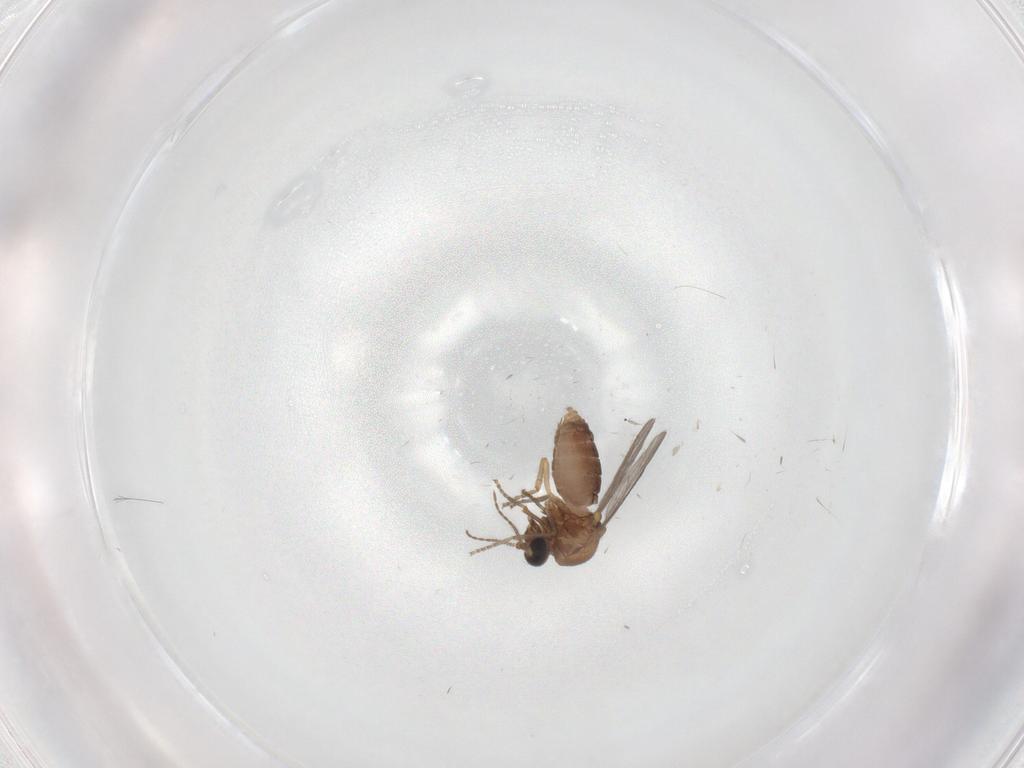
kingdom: Animalia
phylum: Arthropoda
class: Insecta
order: Diptera
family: Ceratopogonidae
